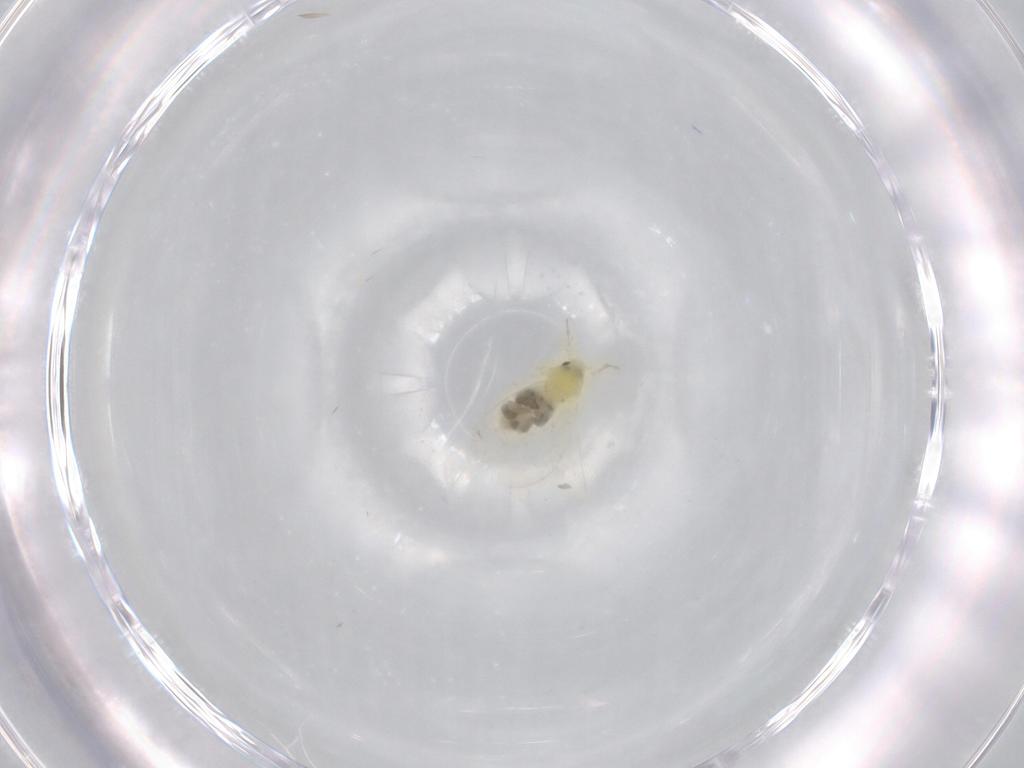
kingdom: Animalia
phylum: Arthropoda
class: Insecta
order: Hemiptera
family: Aleyrodidae
